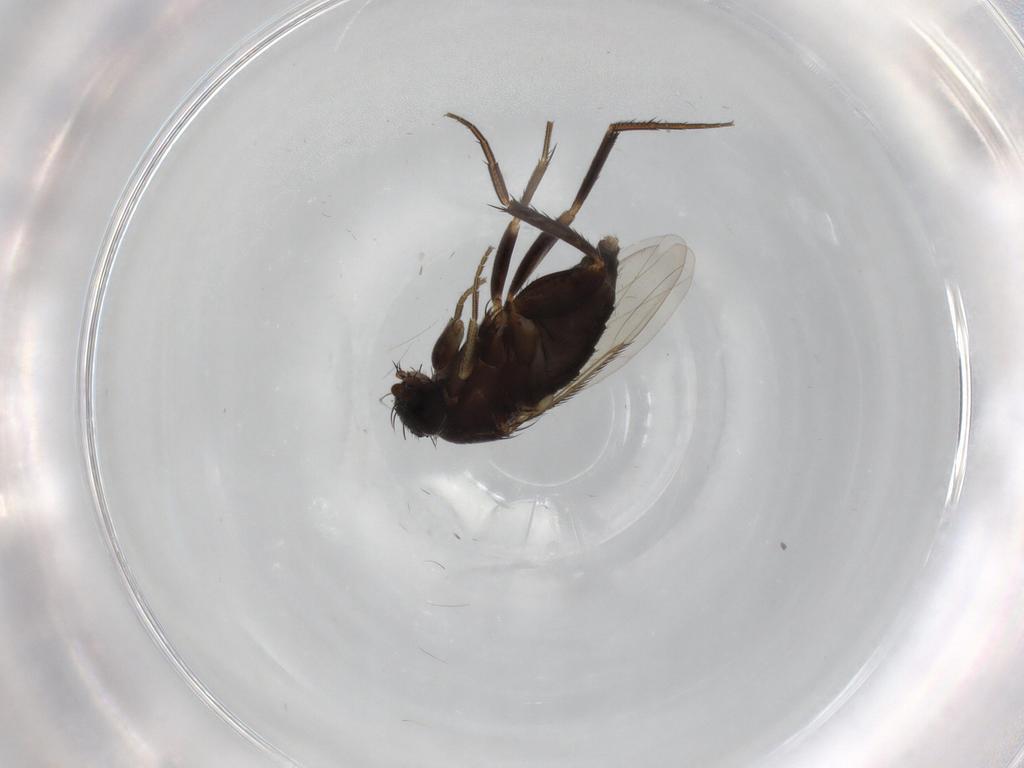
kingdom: Animalia
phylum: Arthropoda
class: Insecta
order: Diptera
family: Phoridae
